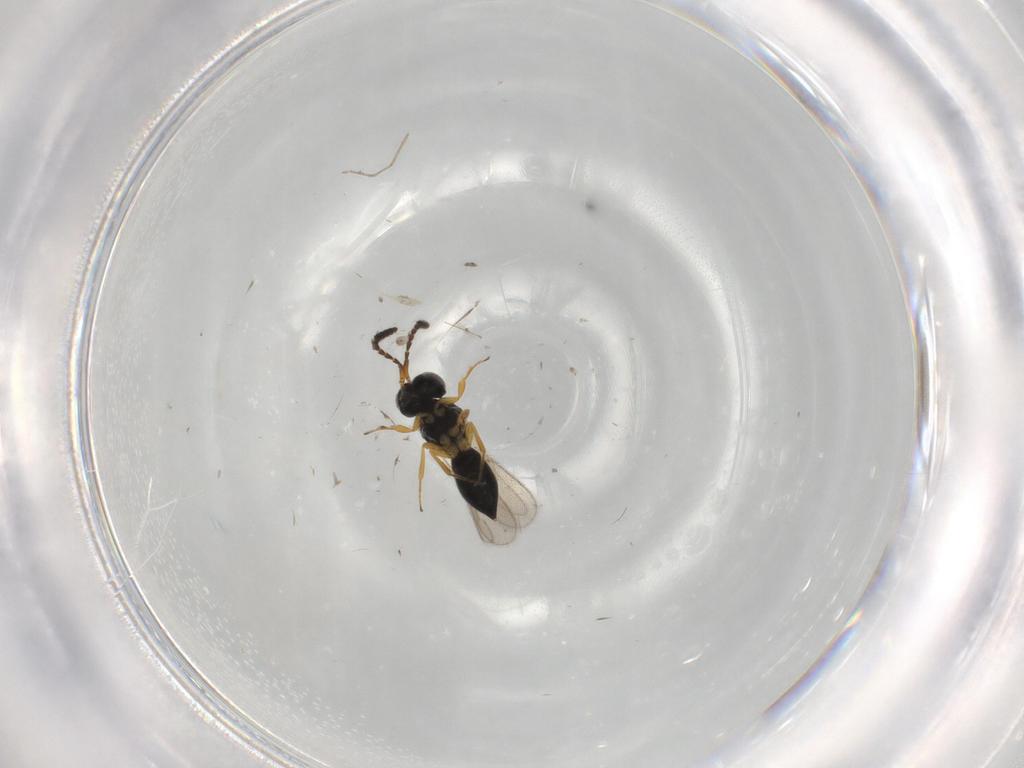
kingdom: Animalia
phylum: Arthropoda
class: Insecta
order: Hymenoptera
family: Scelionidae
